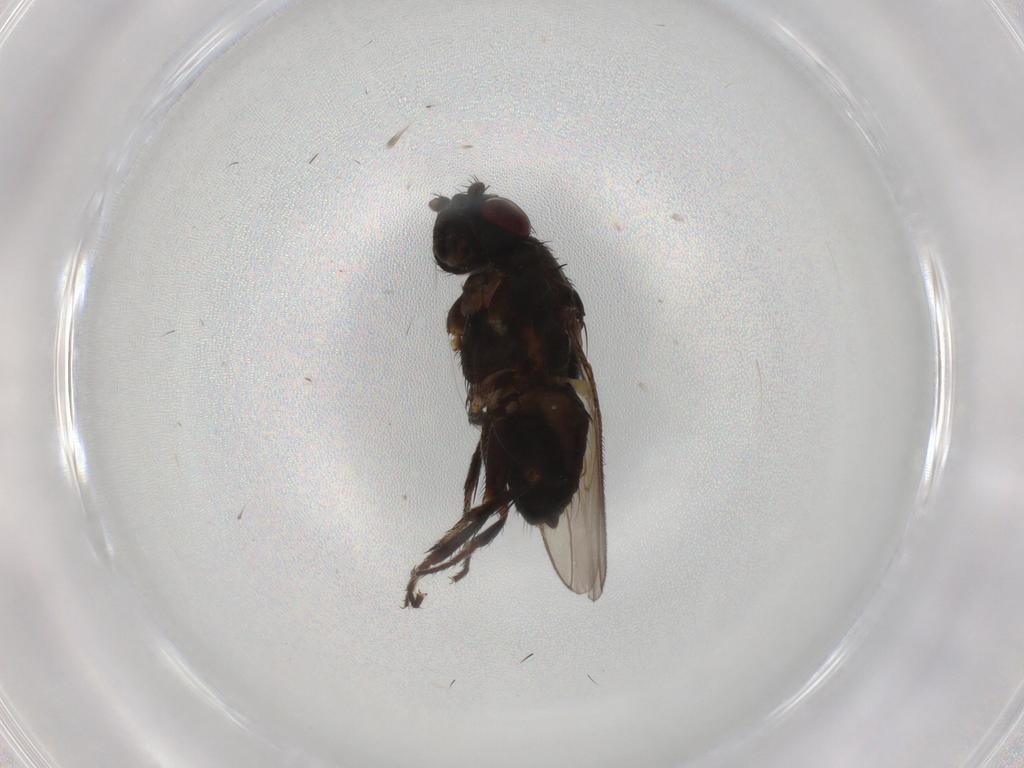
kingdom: Animalia
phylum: Arthropoda
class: Insecta
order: Diptera
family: Sphaeroceridae
